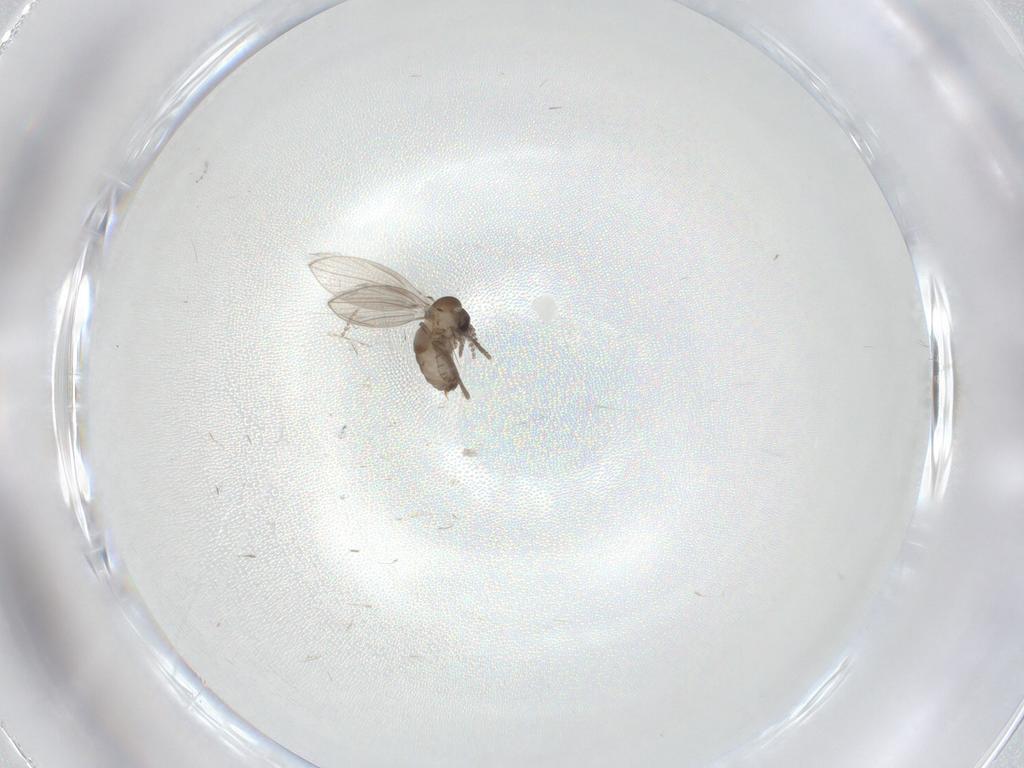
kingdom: Animalia
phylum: Arthropoda
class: Insecta
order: Diptera
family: Psychodidae
